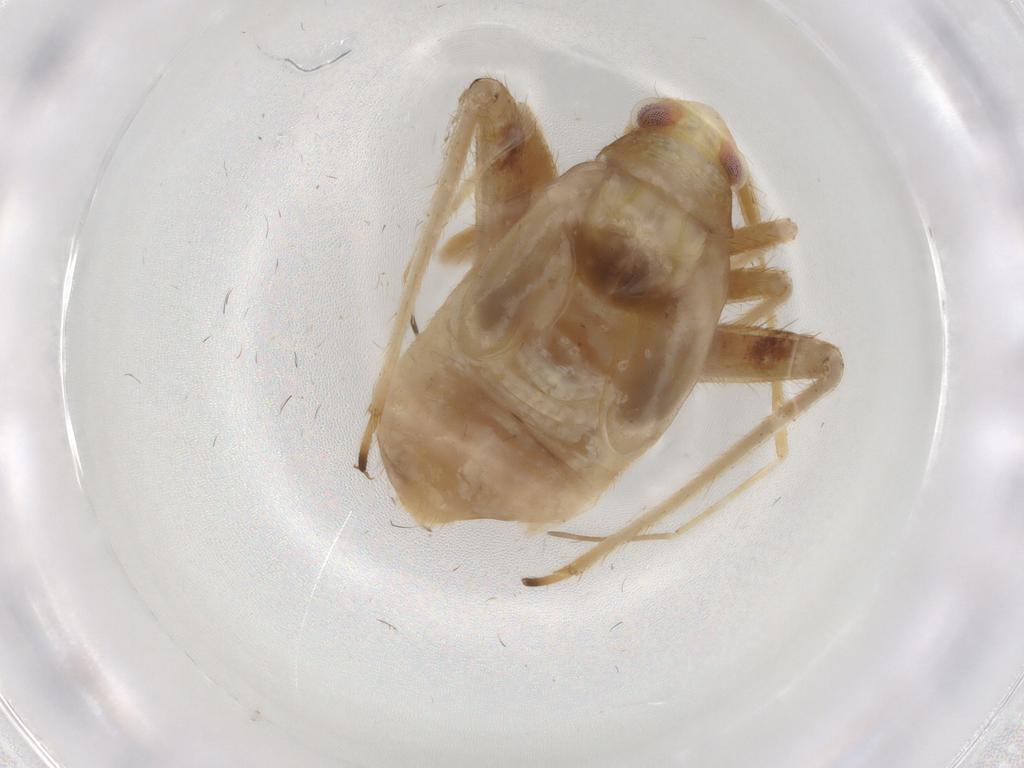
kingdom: Animalia
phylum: Arthropoda
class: Insecta
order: Hemiptera
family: Miridae
